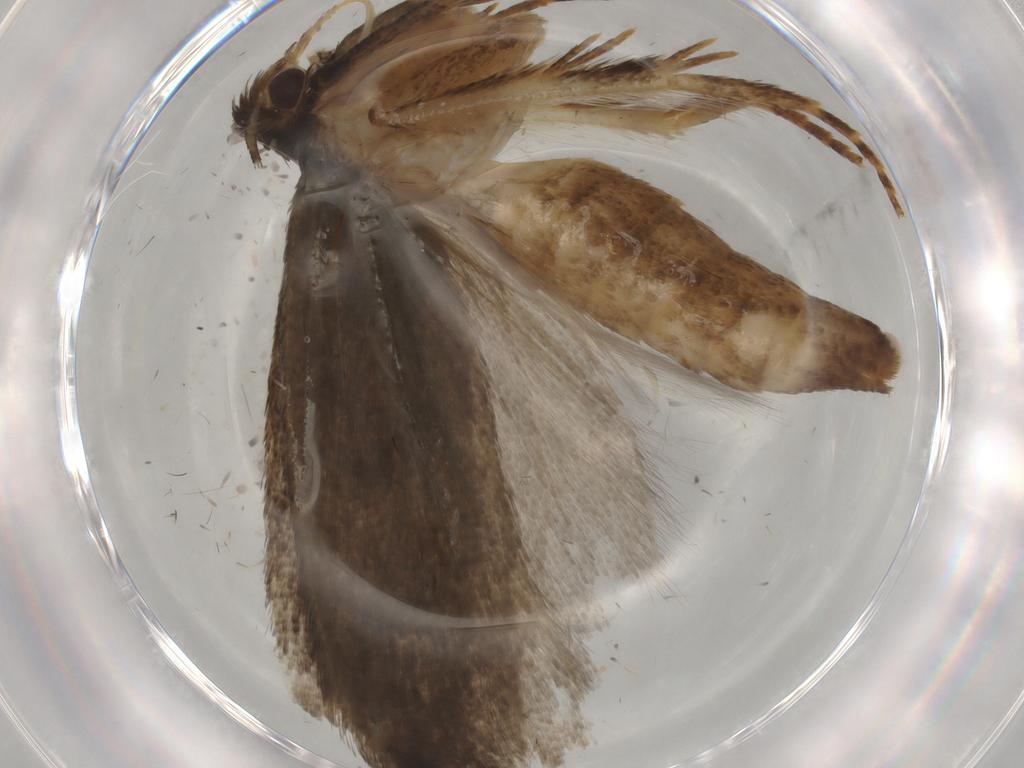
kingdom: Animalia
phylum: Arthropoda
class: Insecta
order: Lepidoptera
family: Gelechiidae
